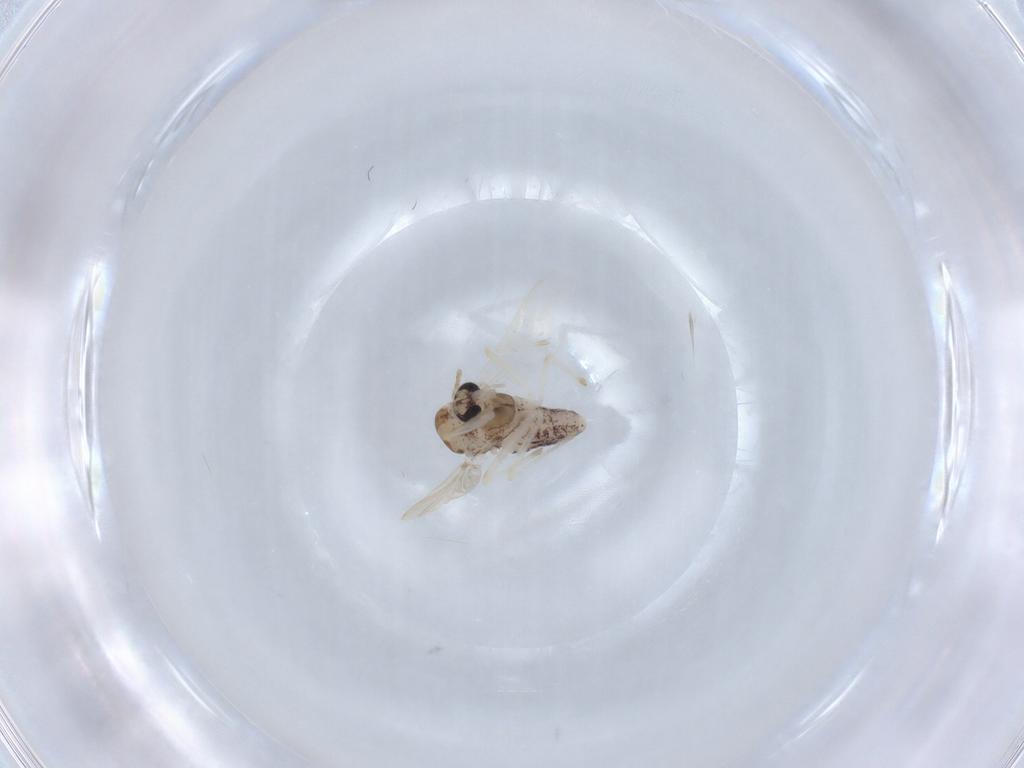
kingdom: Animalia
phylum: Arthropoda
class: Insecta
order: Diptera
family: Chironomidae
